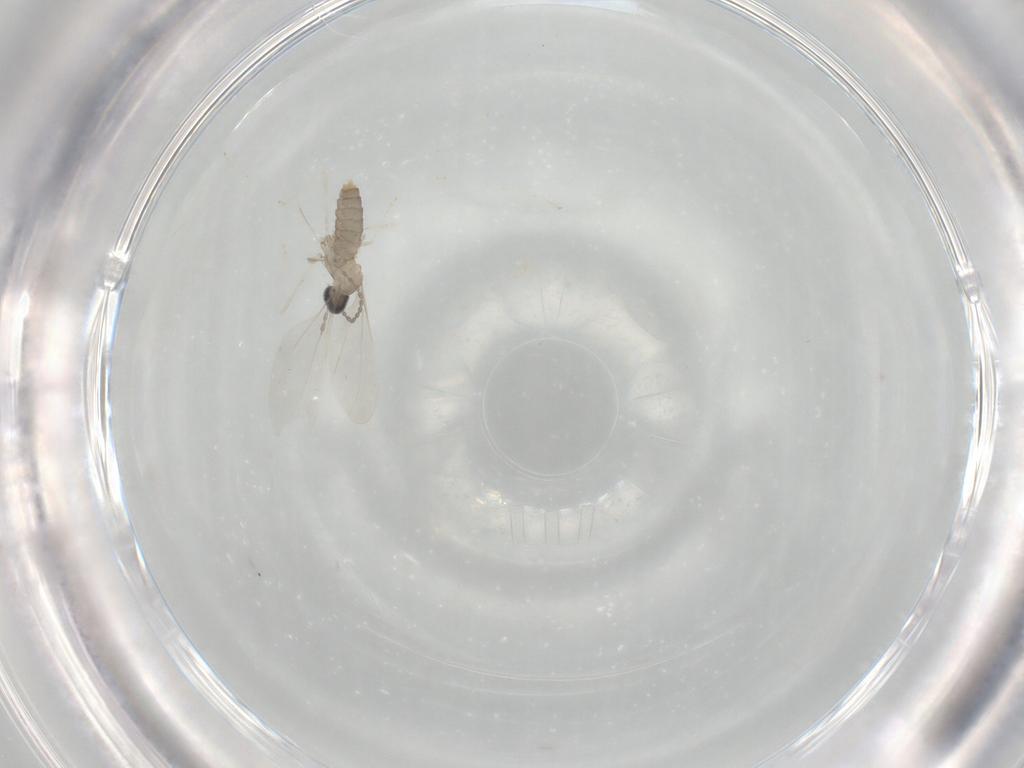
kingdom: Animalia
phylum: Arthropoda
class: Insecta
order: Diptera
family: Cecidomyiidae
